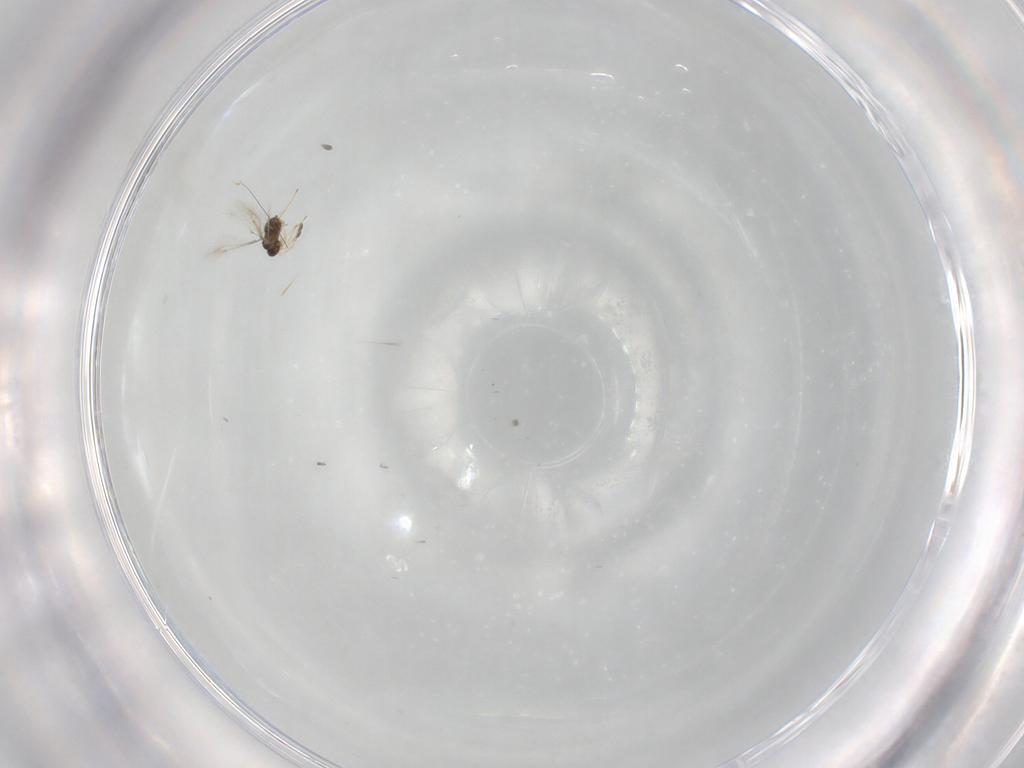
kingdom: Animalia
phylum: Arthropoda
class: Insecta
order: Hymenoptera
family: Mymaridae
